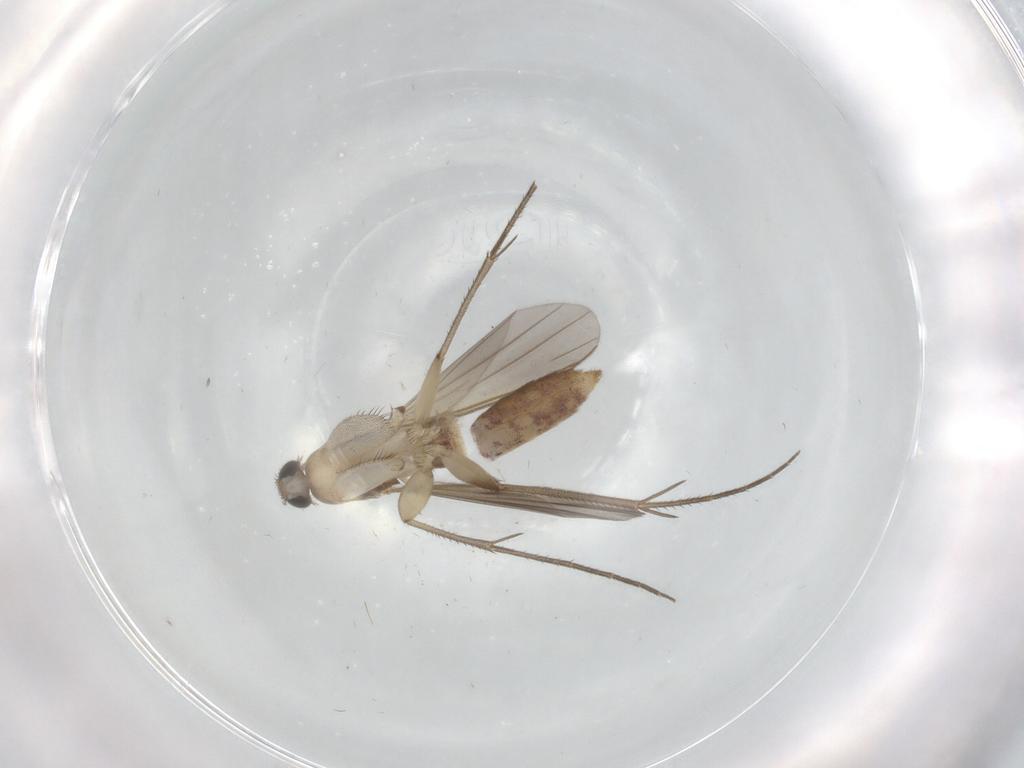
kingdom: Animalia
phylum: Arthropoda
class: Insecta
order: Diptera
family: Mycetophilidae
